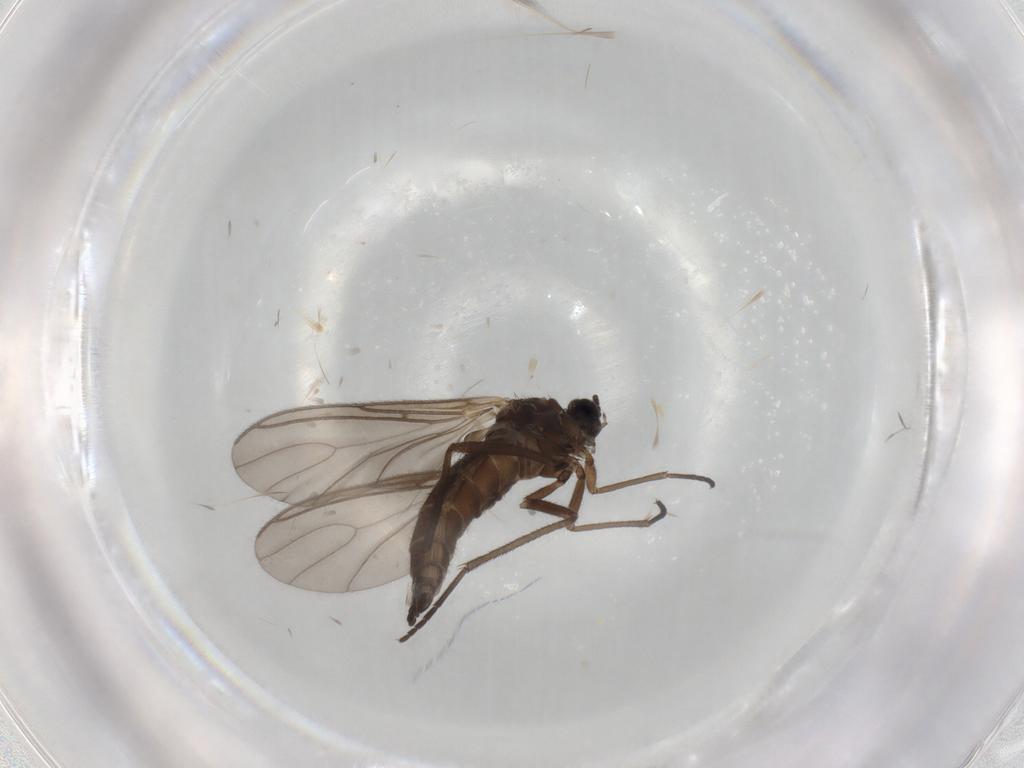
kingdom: Animalia
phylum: Arthropoda
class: Insecta
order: Diptera
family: Sciaridae
